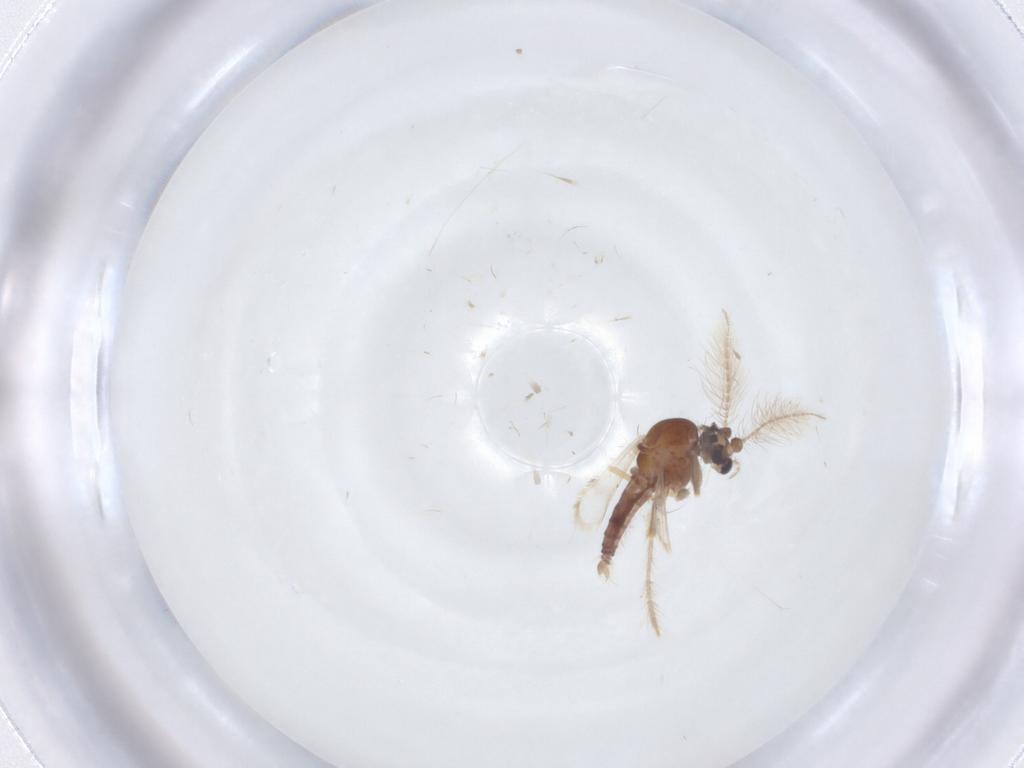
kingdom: Animalia
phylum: Arthropoda
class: Insecta
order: Diptera
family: Psychodidae
